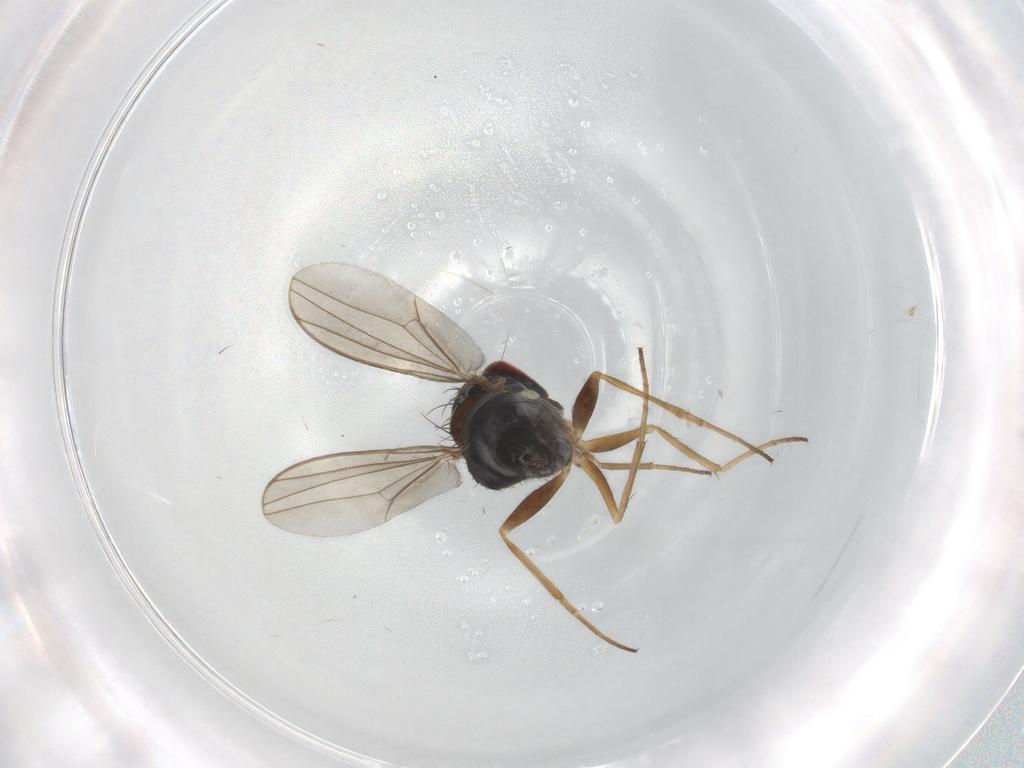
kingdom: Animalia
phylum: Arthropoda
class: Insecta
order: Diptera
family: Dolichopodidae
